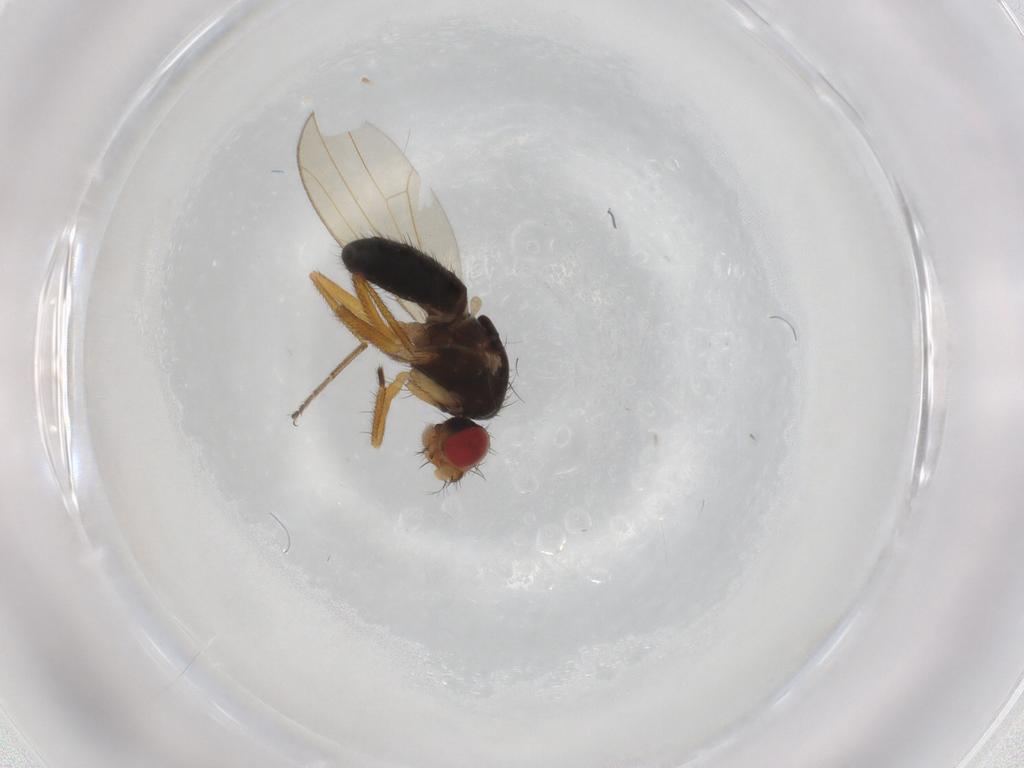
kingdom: Animalia
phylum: Arthropoda
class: Insecta
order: Diptera
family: Drosophilidae
